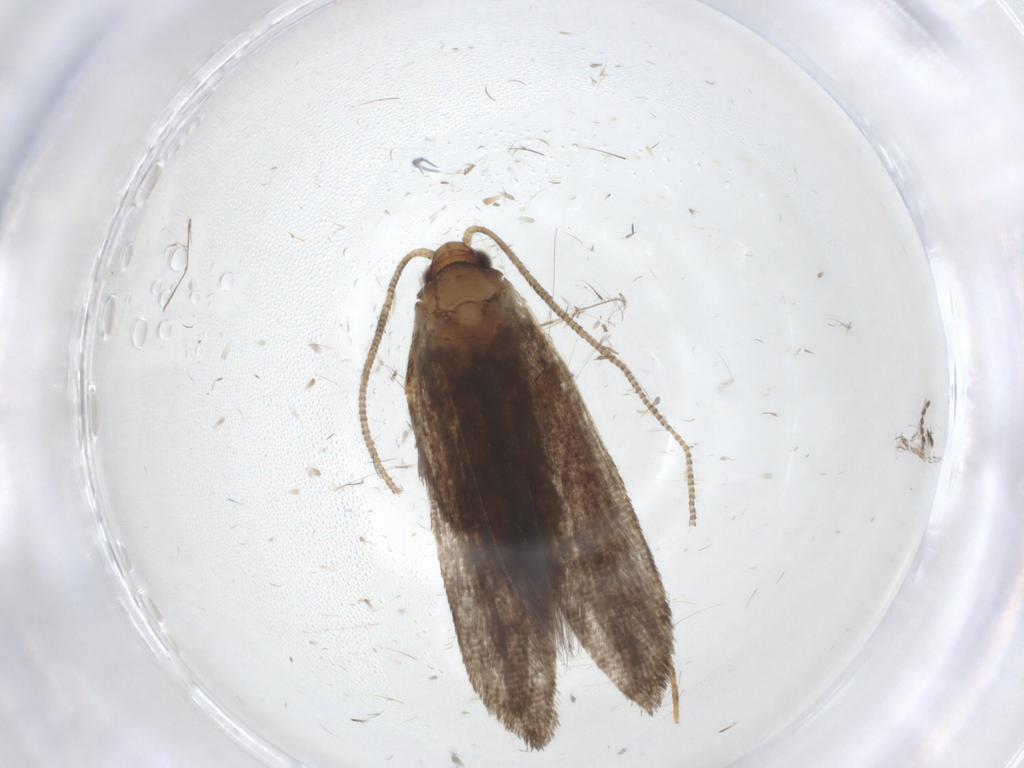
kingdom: Animalia
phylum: Arthropoda
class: Insecta
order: Lepidoptera
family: Tineidae
